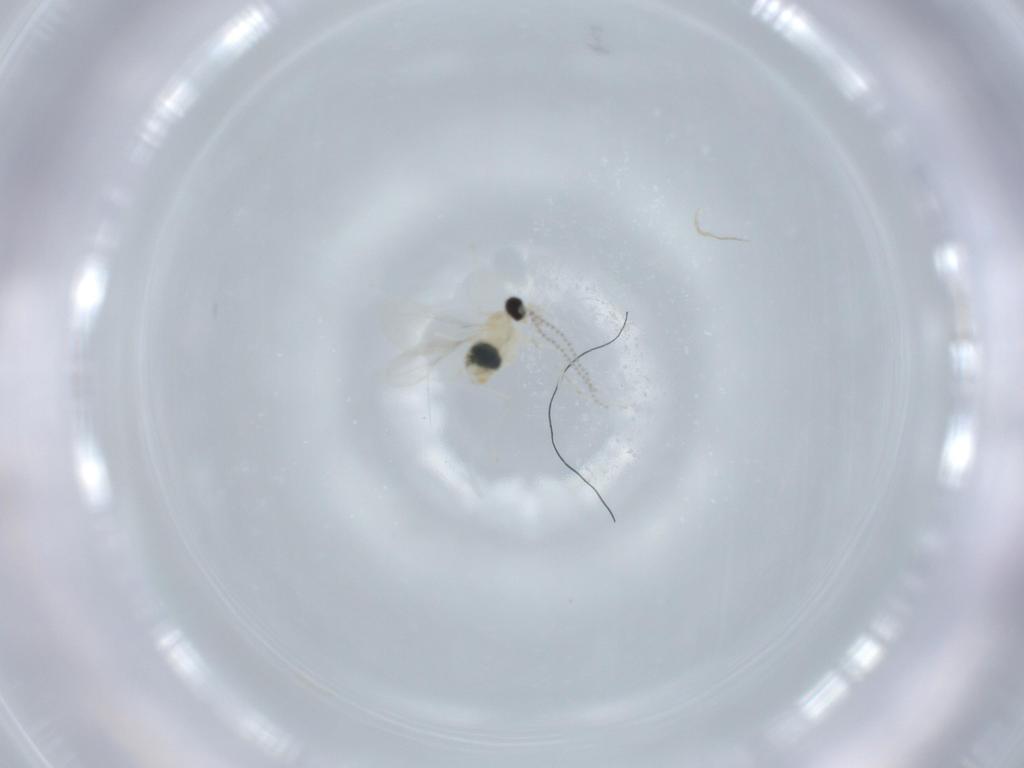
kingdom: Animalia
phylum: Arthropoda
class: Insecta
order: Diptera
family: Cecidomyiidae
